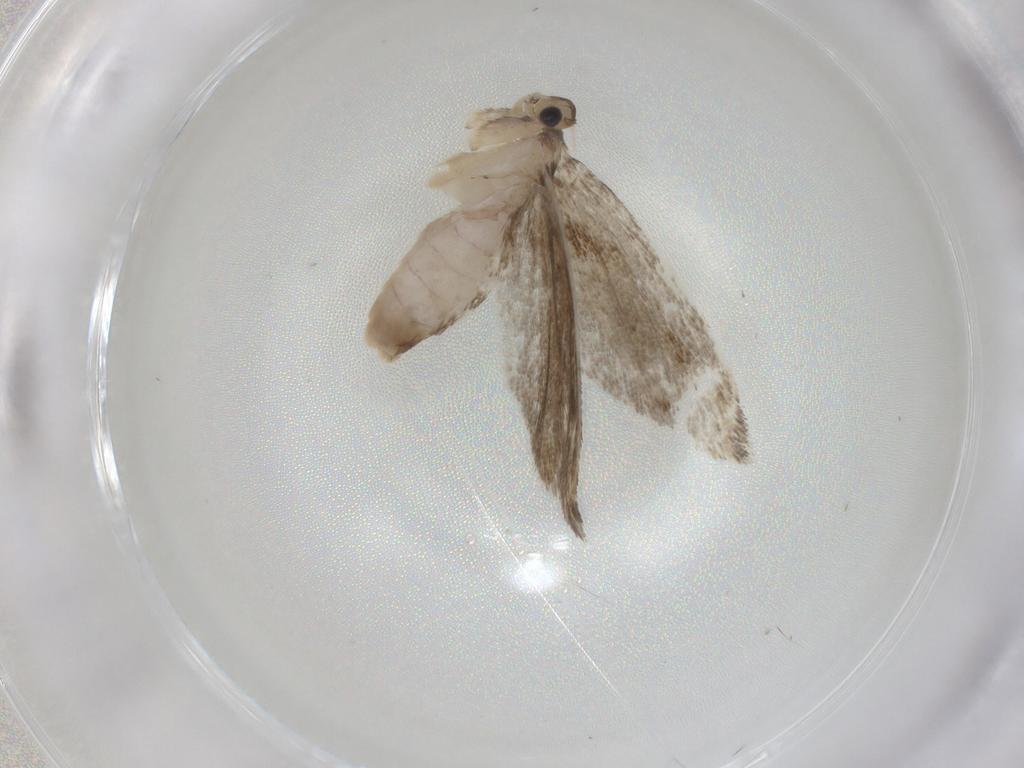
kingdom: Animalia
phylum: Arthropoda
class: Insecta
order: Lepidoptera
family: Tineidae
